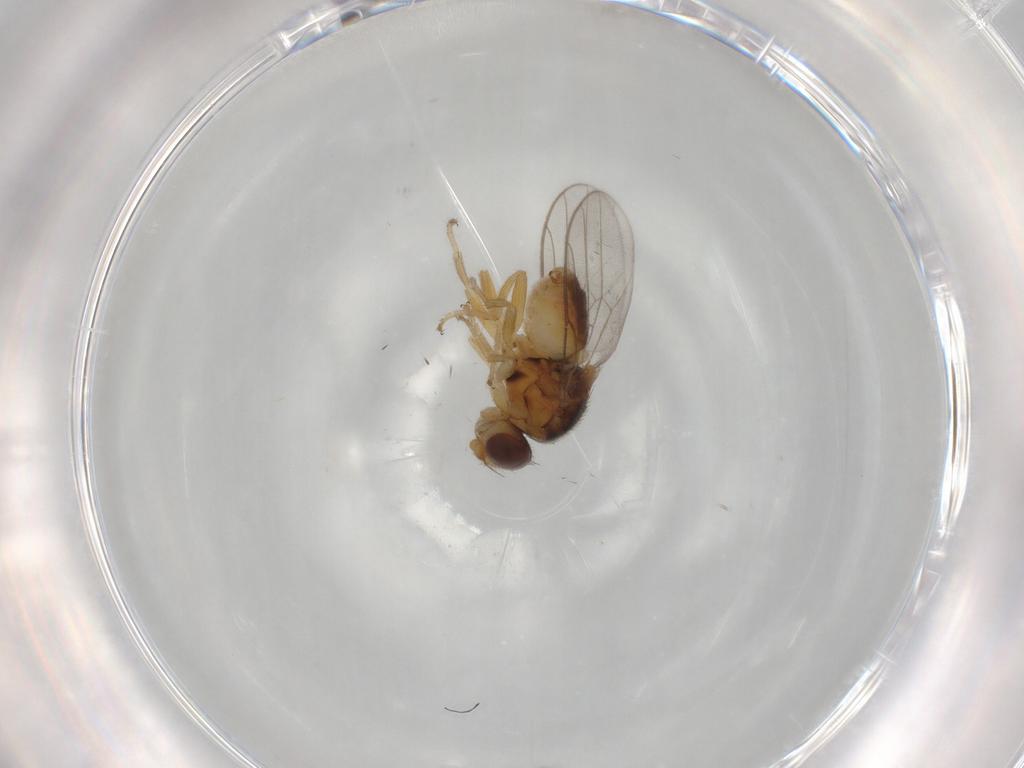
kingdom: Animalia
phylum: Arthropoda
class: Insecta
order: Diptera
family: Chloropidae
